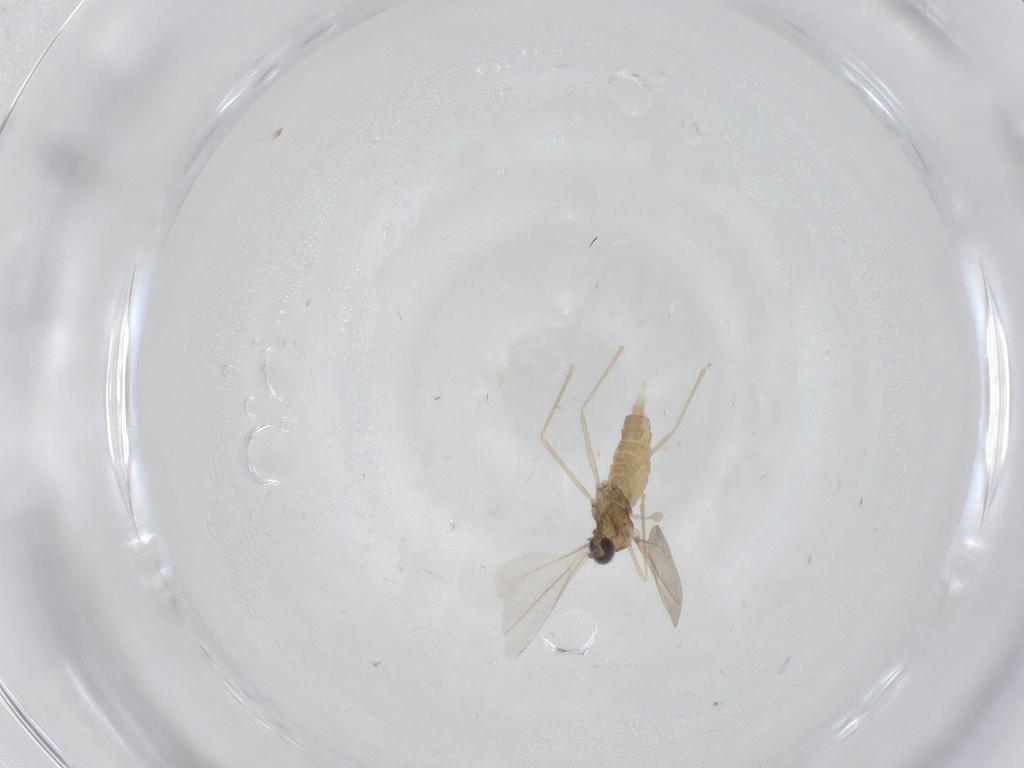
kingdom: Animalia
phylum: Arthropoda
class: Insecta
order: Diptera
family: Cecidomyiidae
